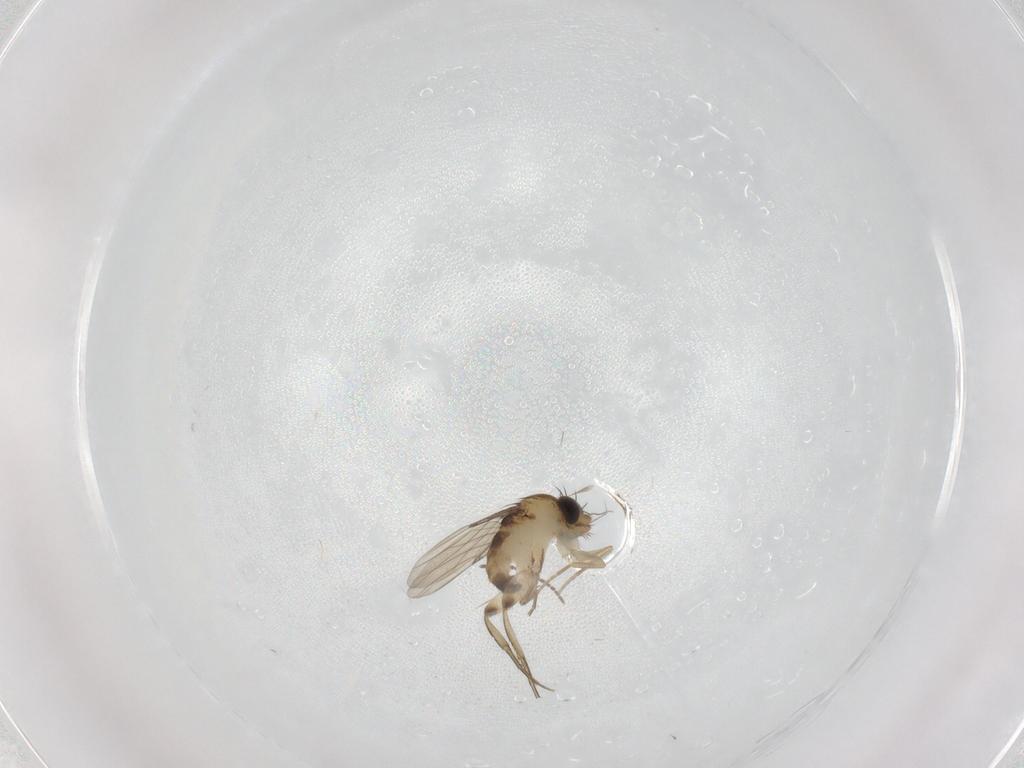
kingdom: Animalia
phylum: Arthropoda
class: Insecta
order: Diptera
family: Phoridae
